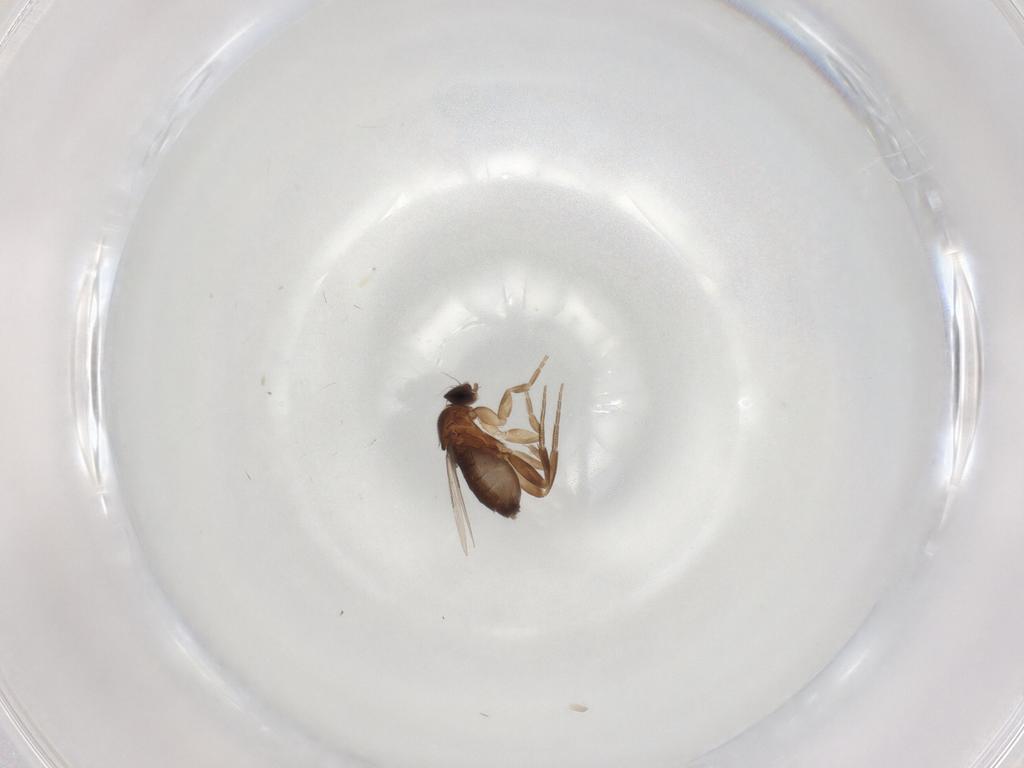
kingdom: Animalia
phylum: Arthropoda
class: Insecta
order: Diptera
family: Phoridae
